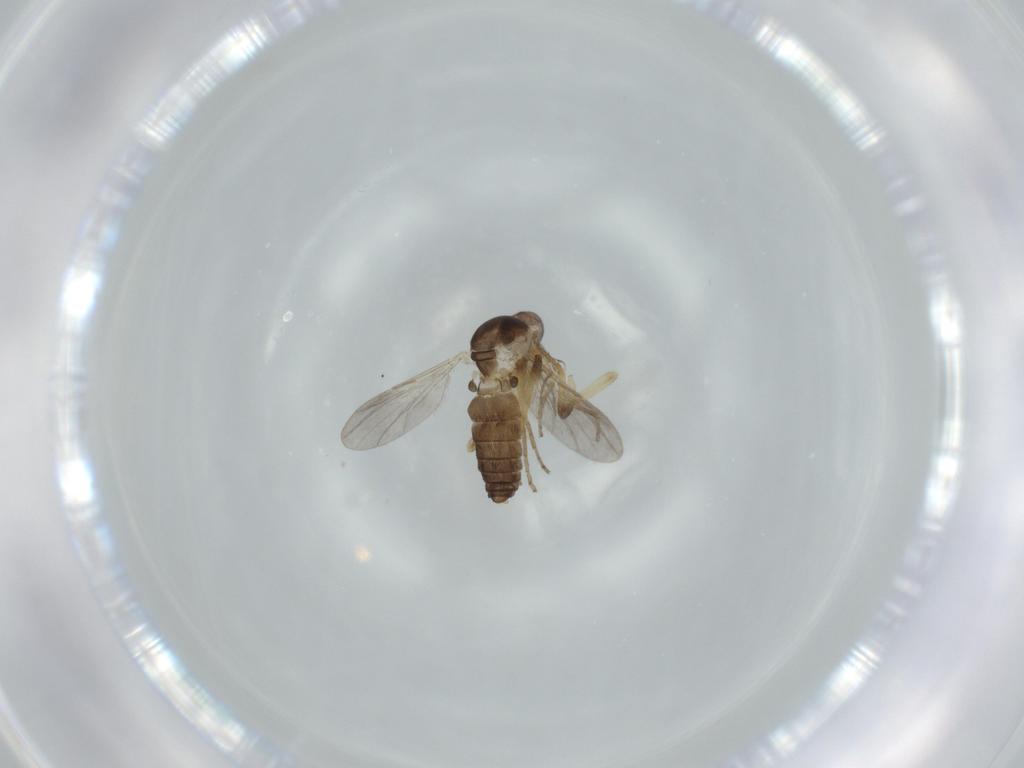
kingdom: Animalia
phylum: Arthropoda
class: Insecta
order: Diptera
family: Ceratopogonidae
